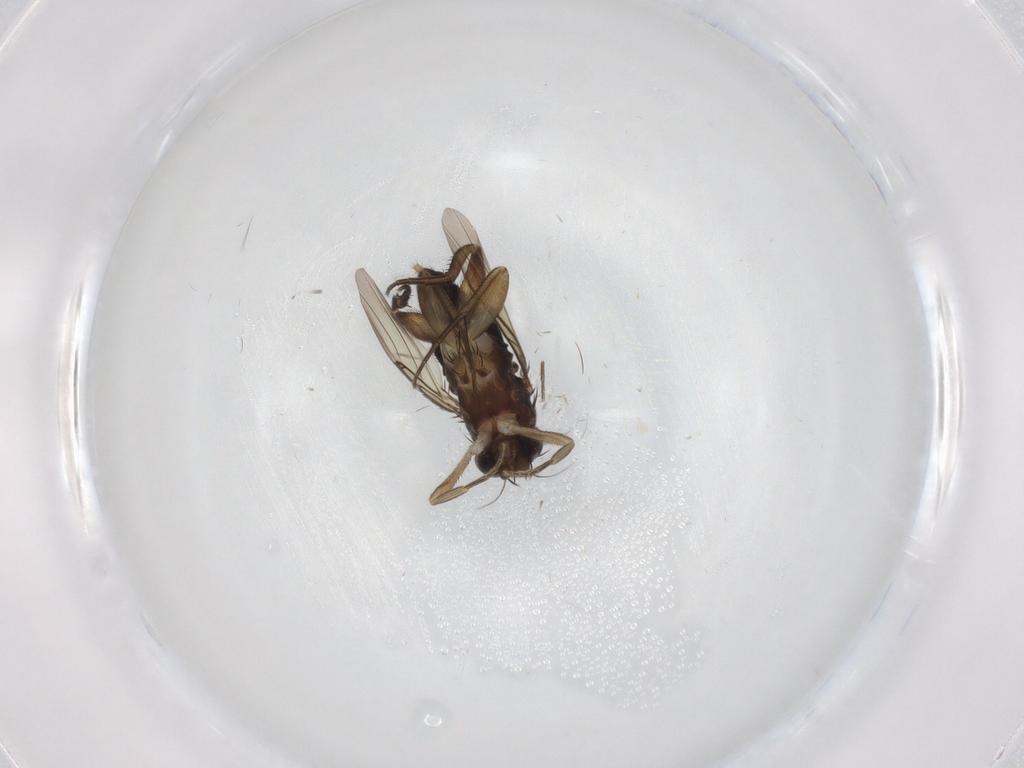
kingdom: Animalia
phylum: Arthropoda
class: Insecta
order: Diptera
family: Phoridae
